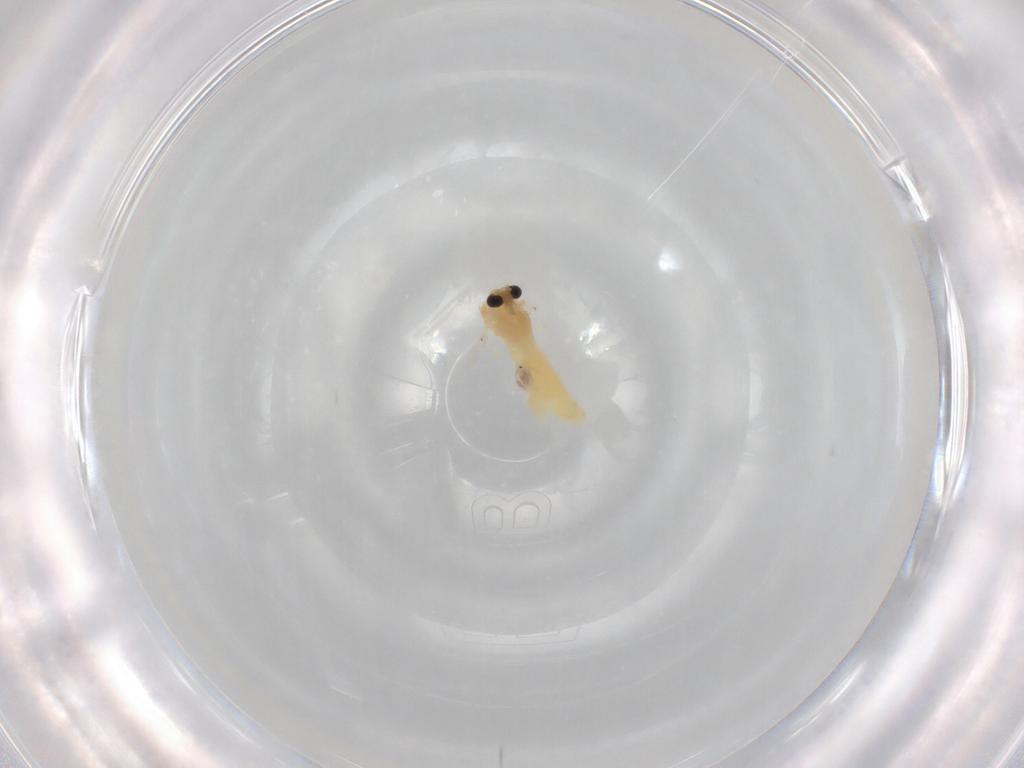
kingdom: Animalia
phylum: Arthropoda
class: Insecta
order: Diptera
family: Chironomidae
